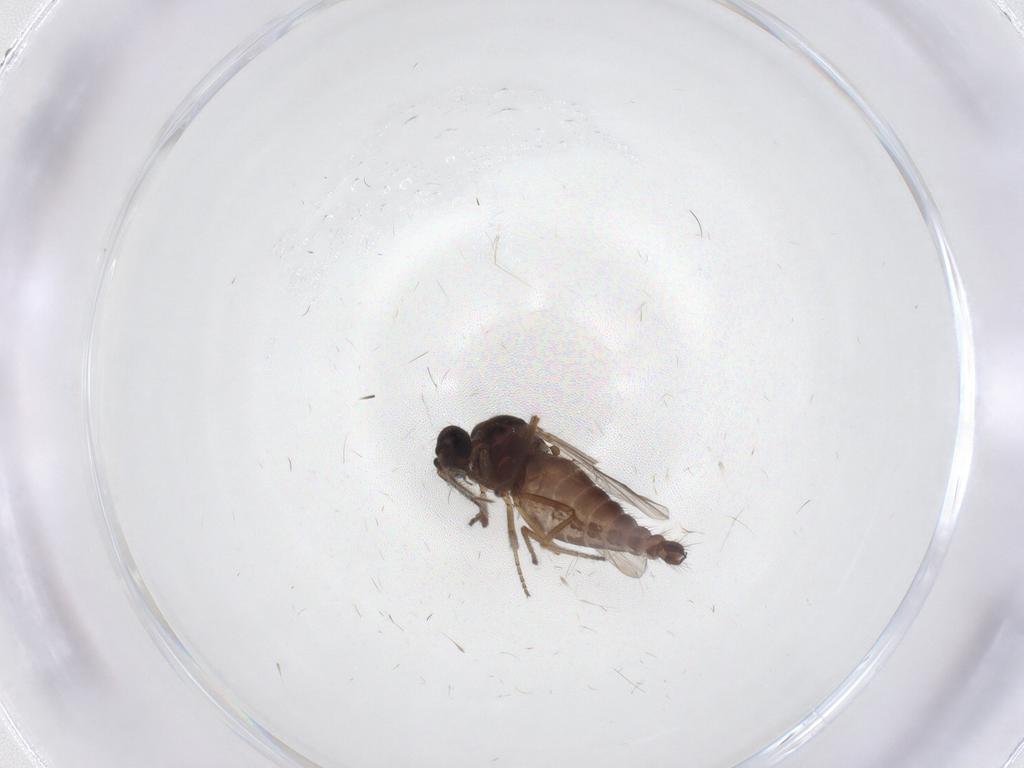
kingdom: Animalia
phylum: Arthropoda
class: Insecta
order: Diptera
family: Ceratopogonidae
